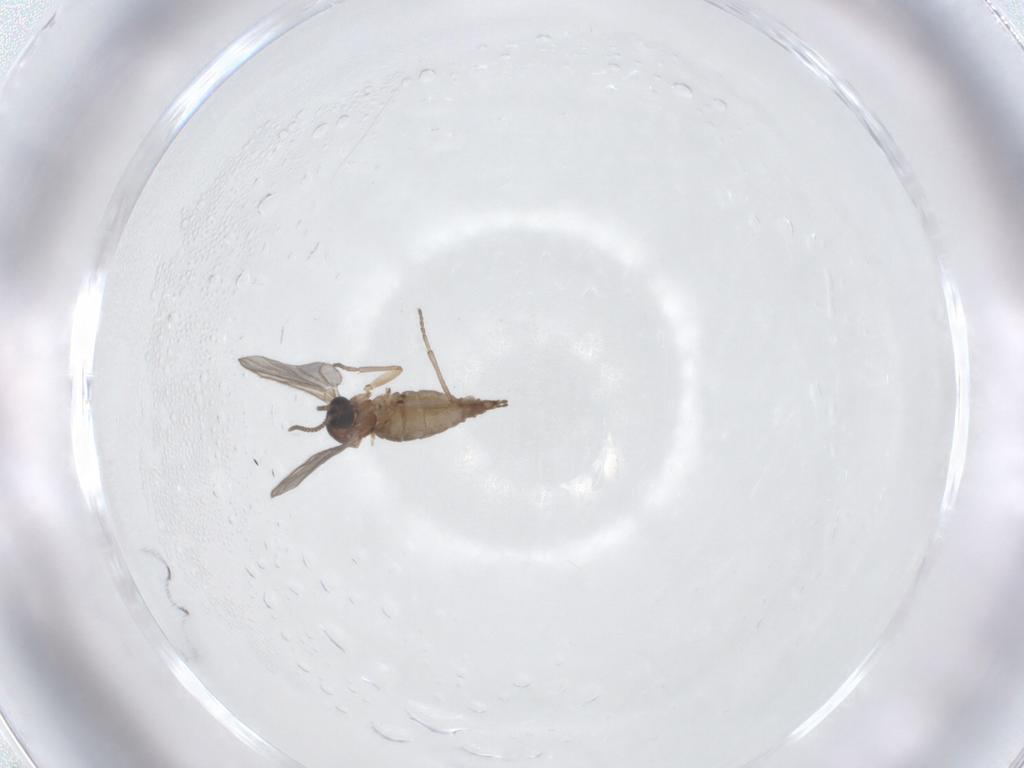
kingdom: Animalia
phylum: Arthropoda
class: Insecta
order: Diptera
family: Sciaridae
